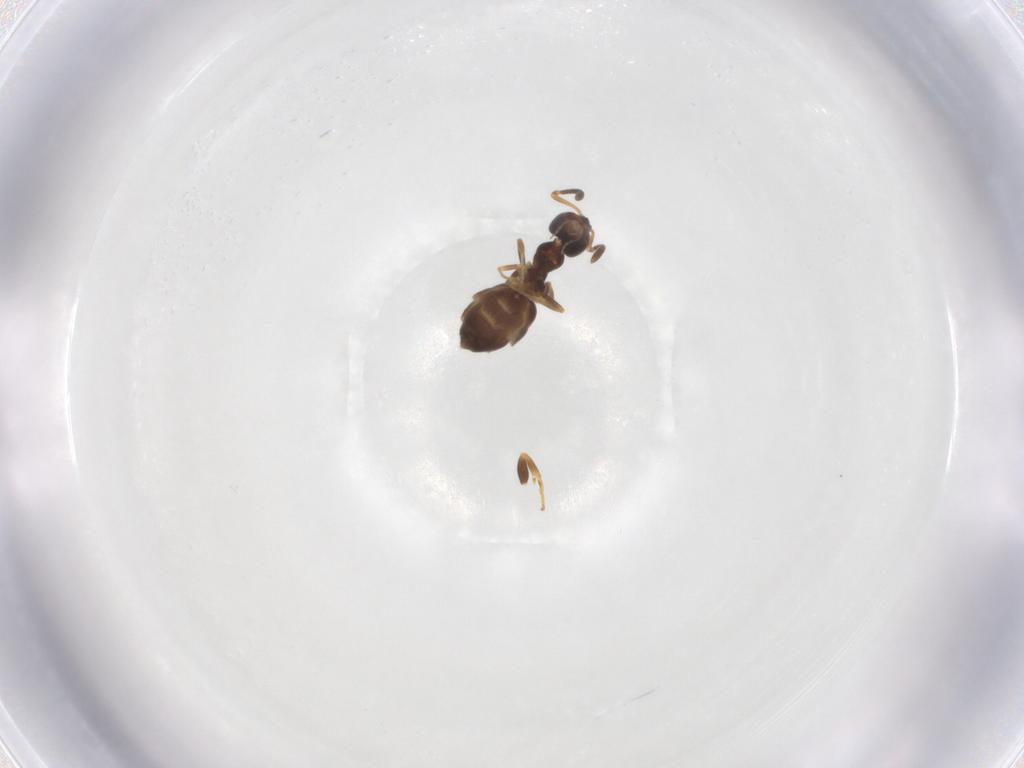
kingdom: Animalia
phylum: Arthropoda
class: Insecta
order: Hymenoptera
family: Formicidae
